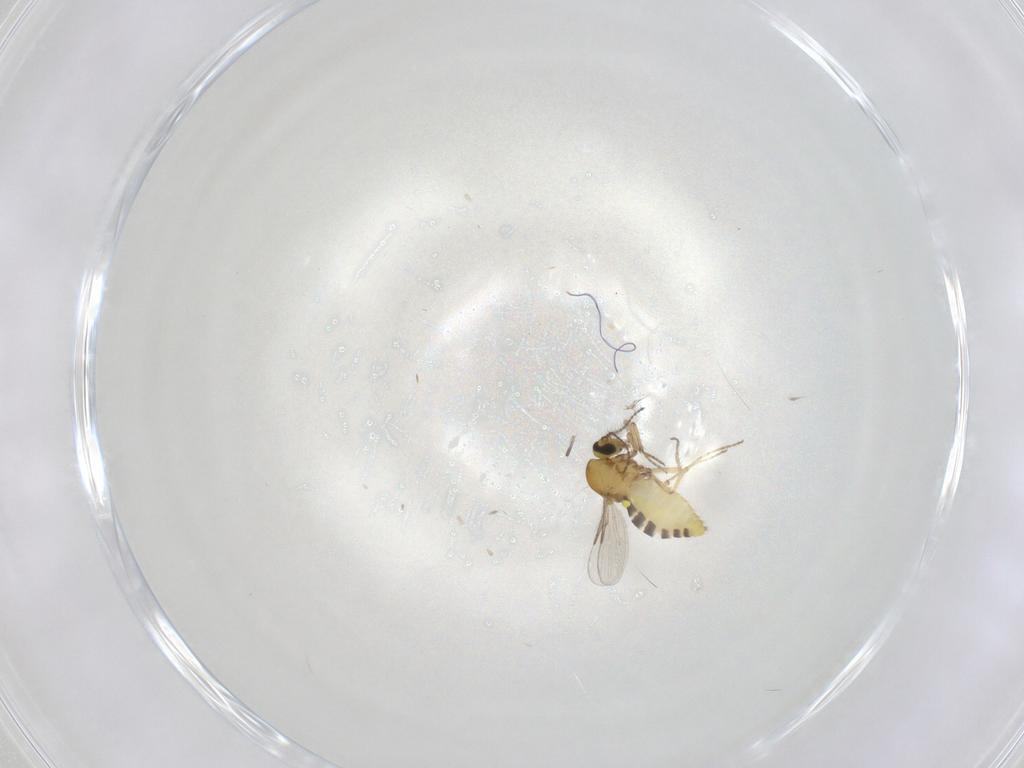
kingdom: Animalia
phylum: Arthropoda
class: Insecta
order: Diptera
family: Ceratopogonidae
